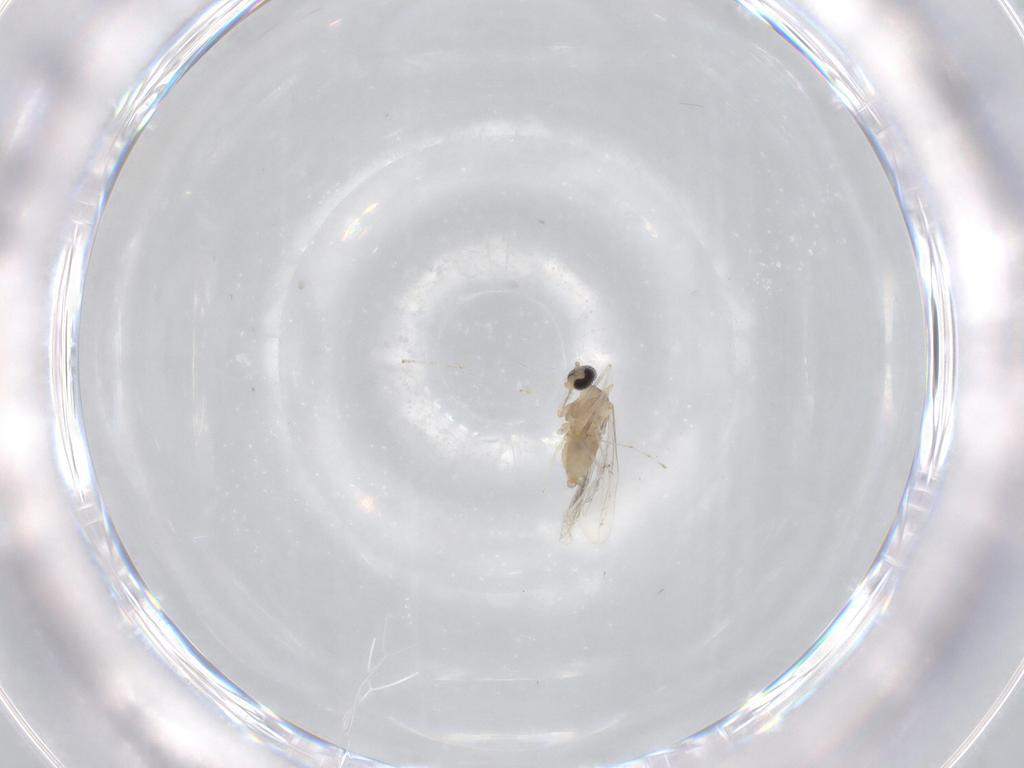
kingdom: Animalia
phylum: Arthropoda
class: Insecta
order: Diptera
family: Cecidomyiidae
